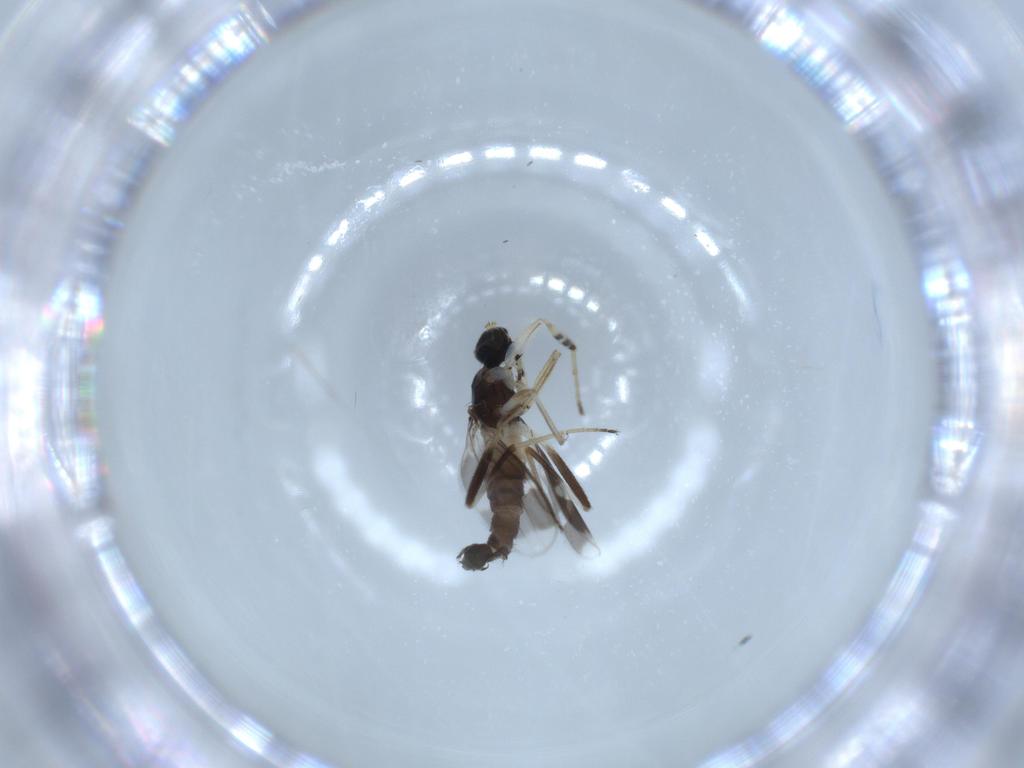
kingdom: Animalia
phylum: Arthropoda
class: Insecta
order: Diptera
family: Hybotidae
